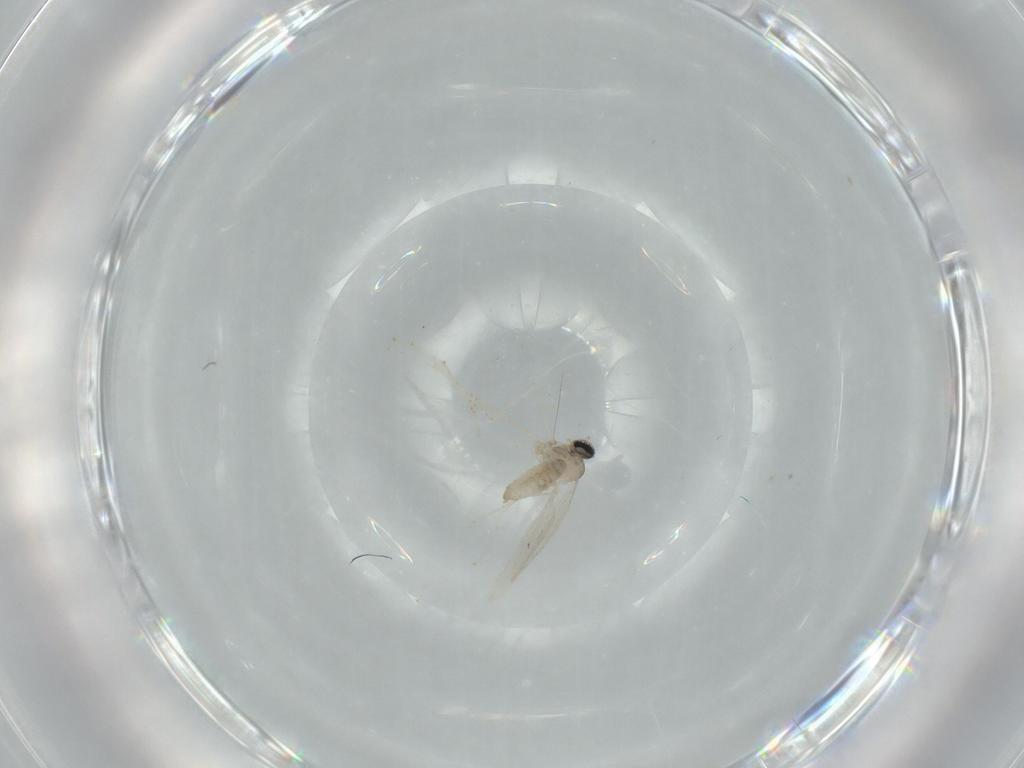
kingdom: Animalia
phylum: Arthropoda
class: Insecta
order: Diptera
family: Cecidomyiidae
